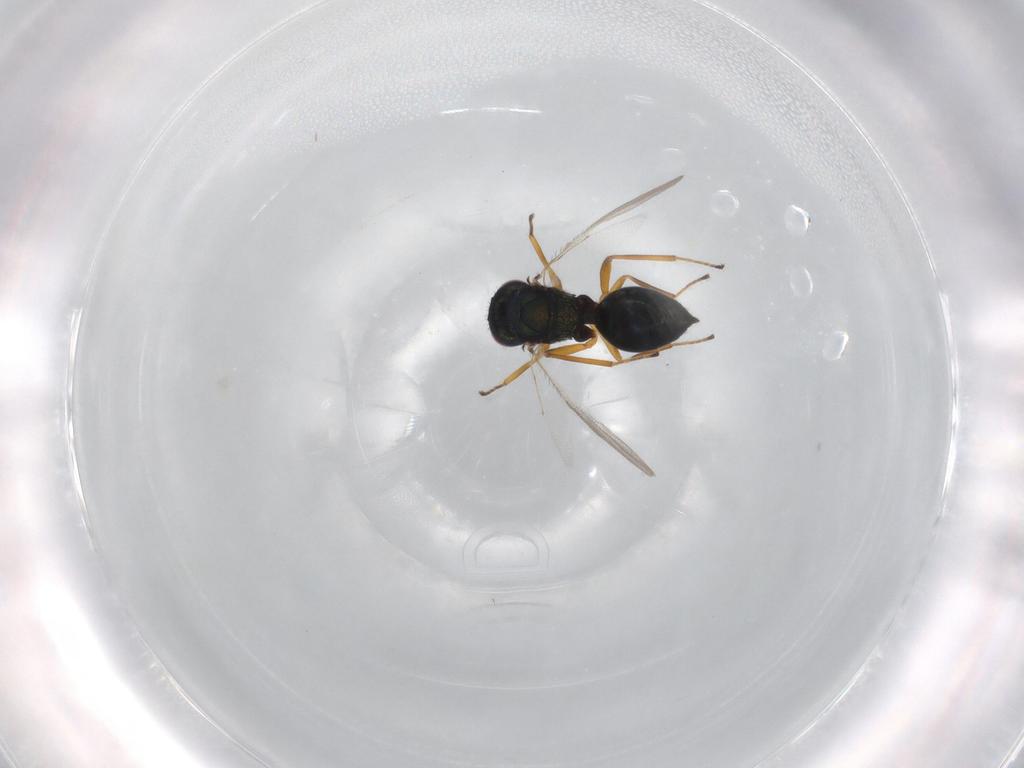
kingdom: Animalia
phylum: Arthropoda
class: Insecta
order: Hymenoptera
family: Pteromalidae
